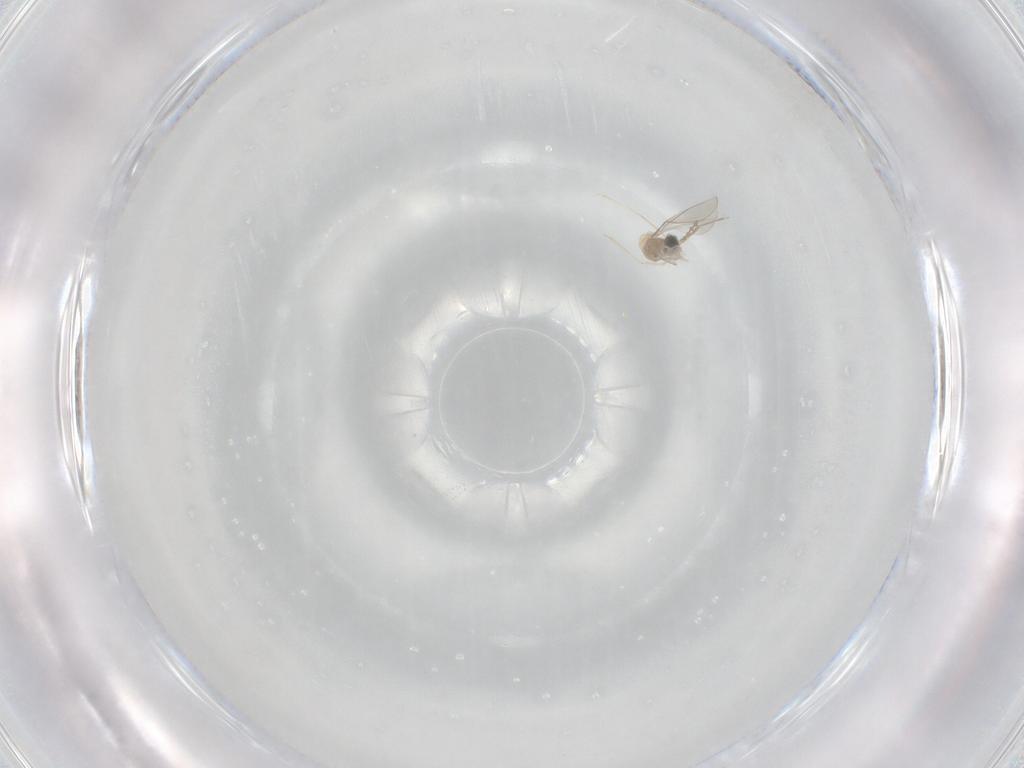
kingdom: Animalia
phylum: Arthropoda
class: Insecta
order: Diptera
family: Cecidomyiidae
